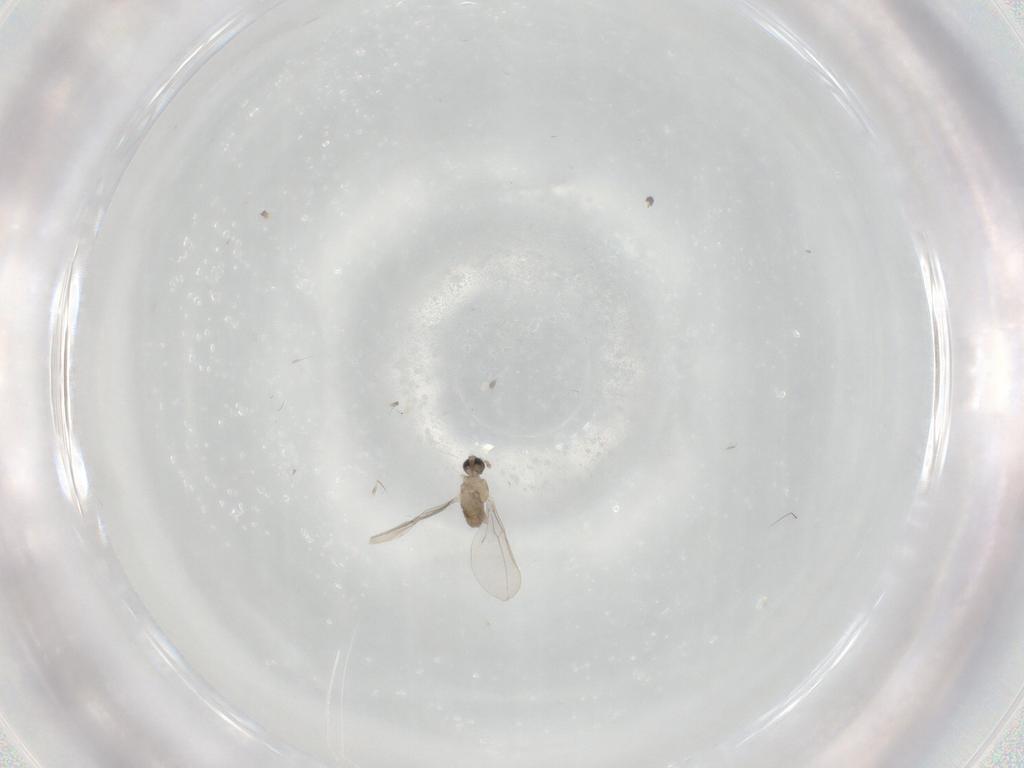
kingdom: Animalia
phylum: Arthropoda
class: Insecta
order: Diptera
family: Cecidomyiidae
